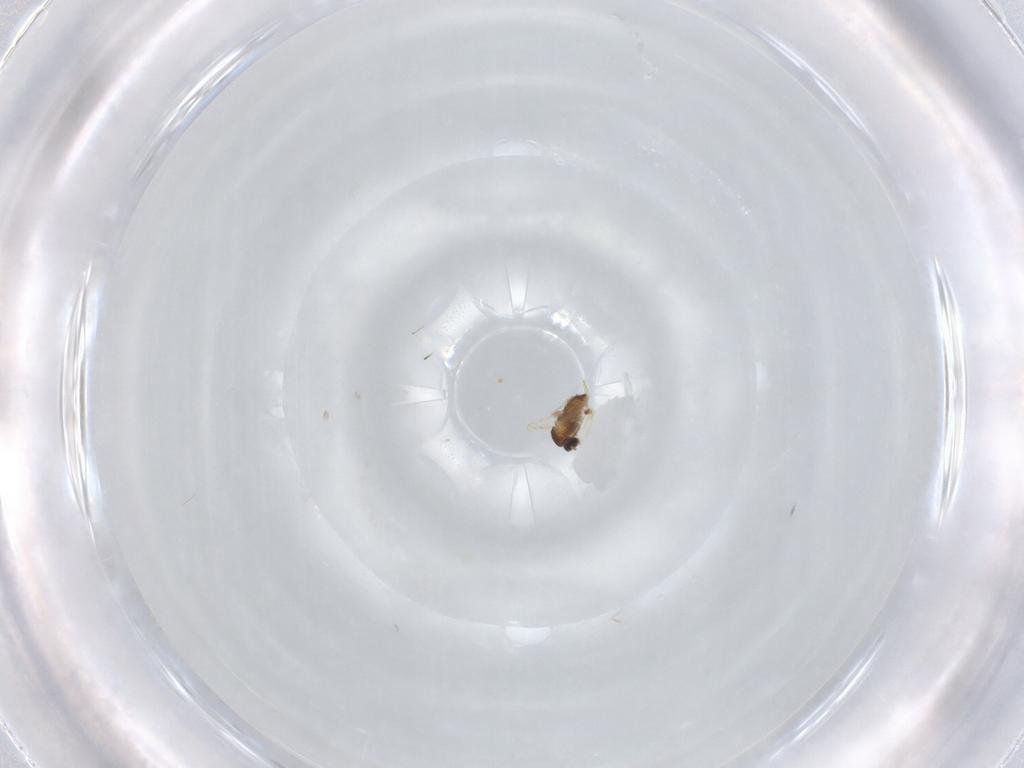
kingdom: Animalia
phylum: Arthropoda
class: Insecta
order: Diptera
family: Cecidomyiidae
